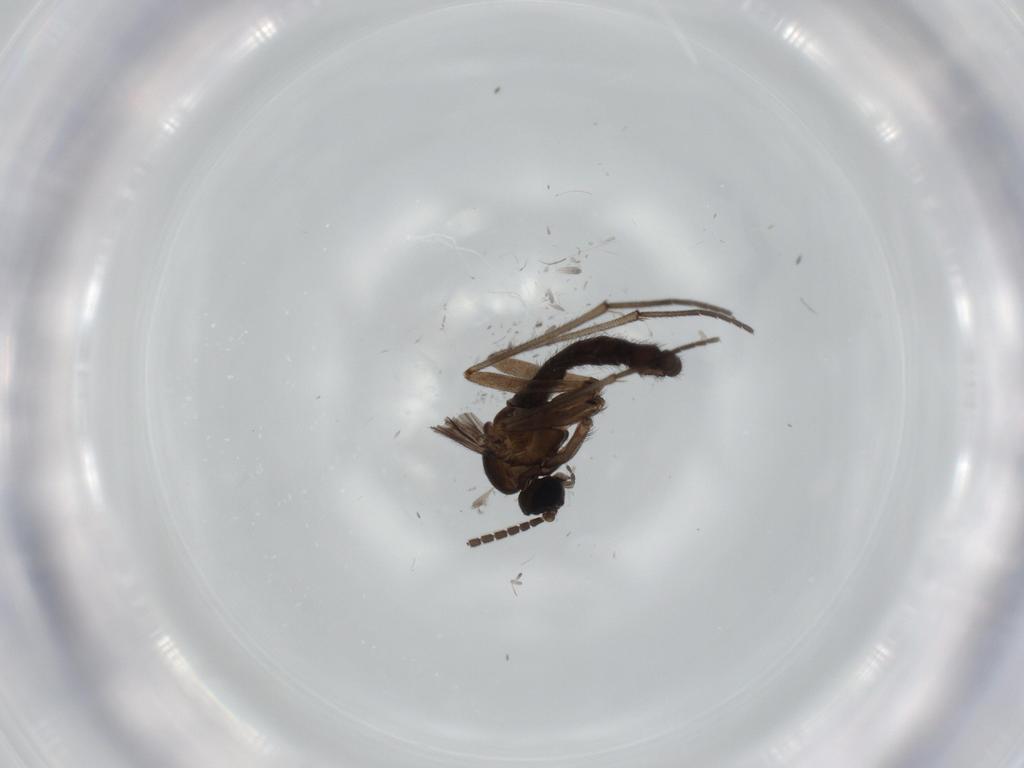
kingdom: Animalia
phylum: Arthropoda
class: Insecta
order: Diptera
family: Sciaridae
